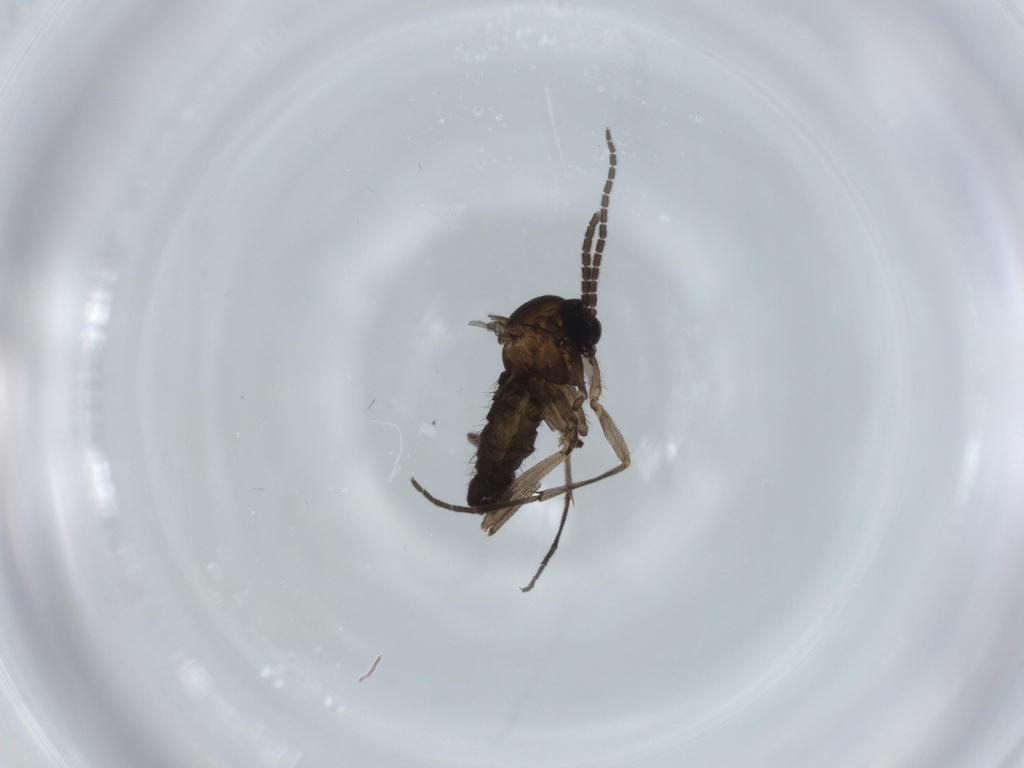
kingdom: Animalia
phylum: Arthropoda
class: Insecta
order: Diptera
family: Sciaridae
